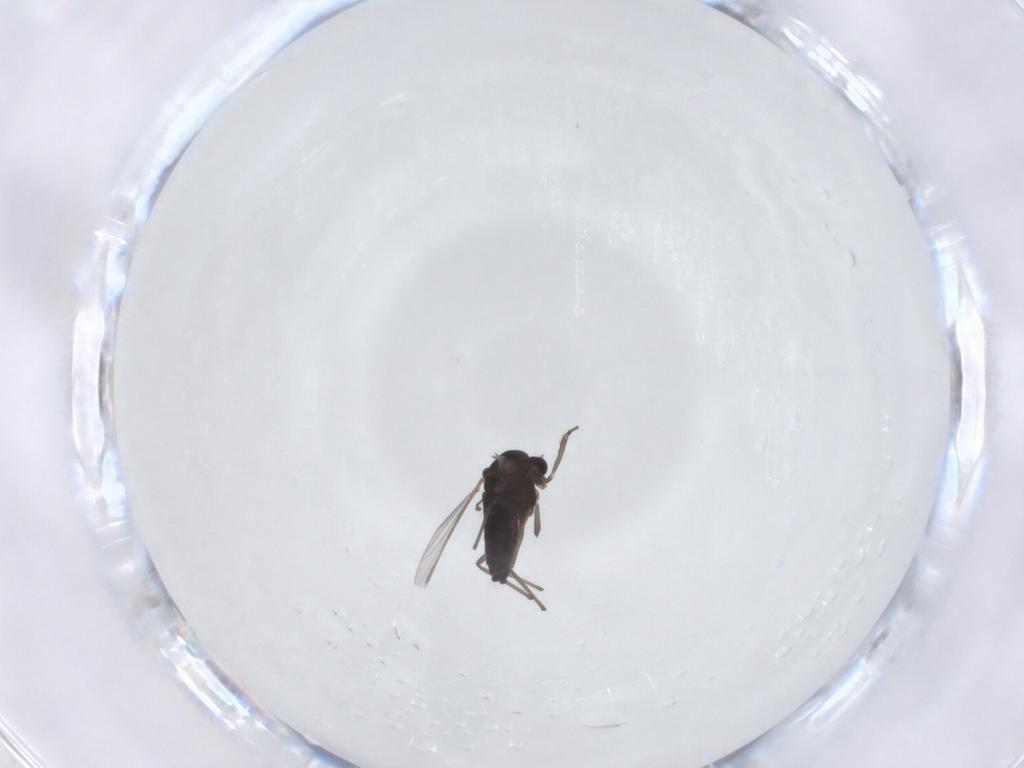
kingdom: Animalia
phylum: Arthropoda
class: Insecta
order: Diptera
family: Chironomidae
